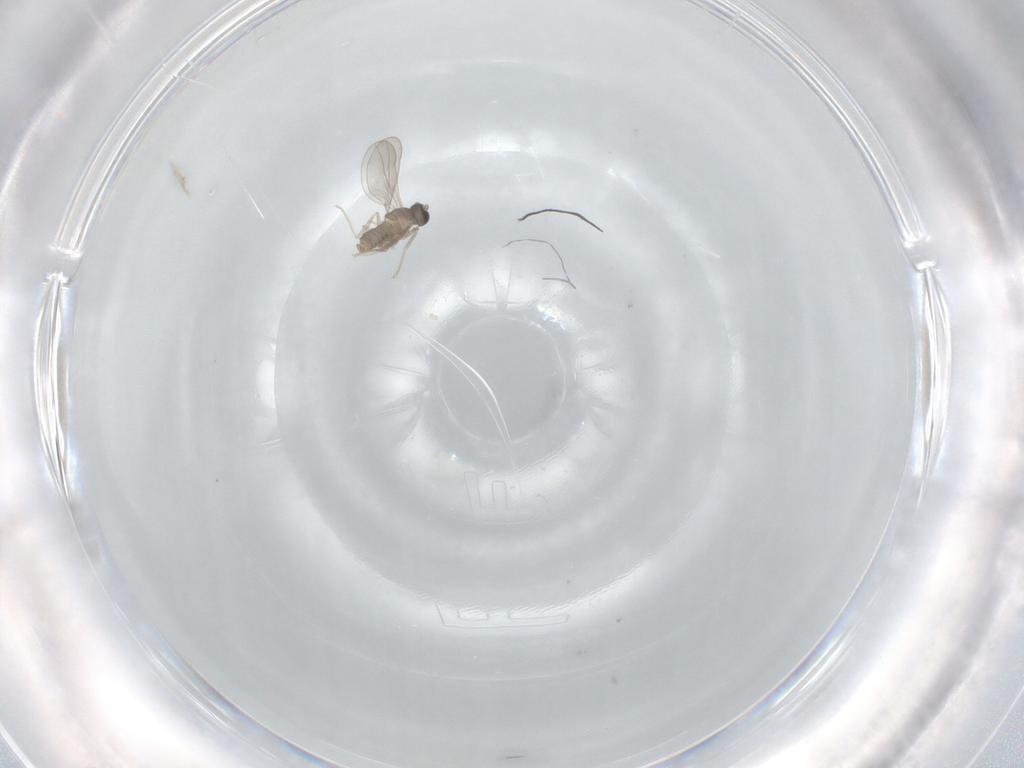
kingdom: Animalia
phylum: Arthropoda
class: Insecta
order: Diptera
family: Cecidomyiidae
